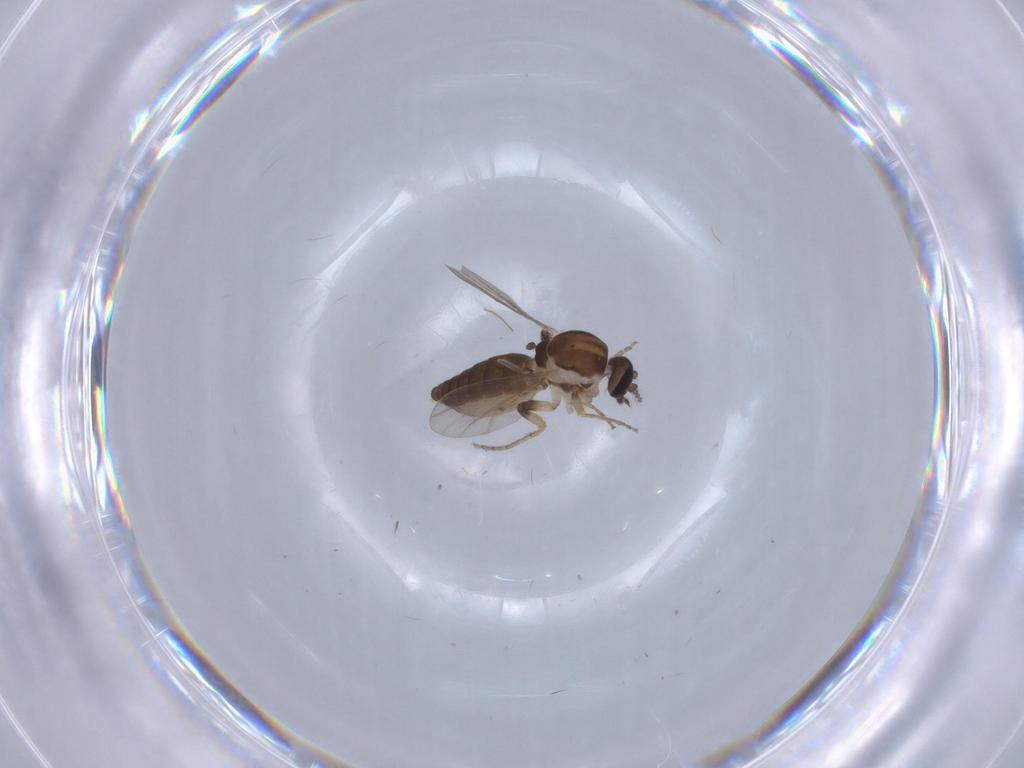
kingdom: Animalia
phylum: Arthropoda
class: Insecta
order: Diptera
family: Ceratopogonidae
